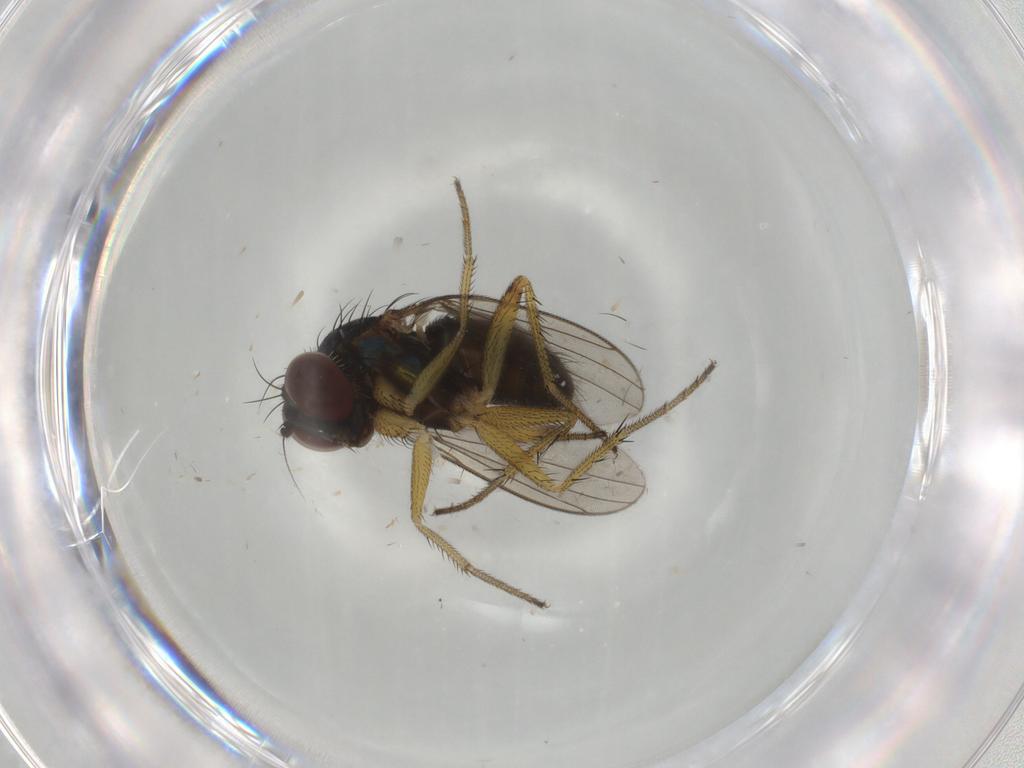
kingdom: Animalia
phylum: Arthropoda
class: Insecta
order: Diptera
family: Dolichopodidae
